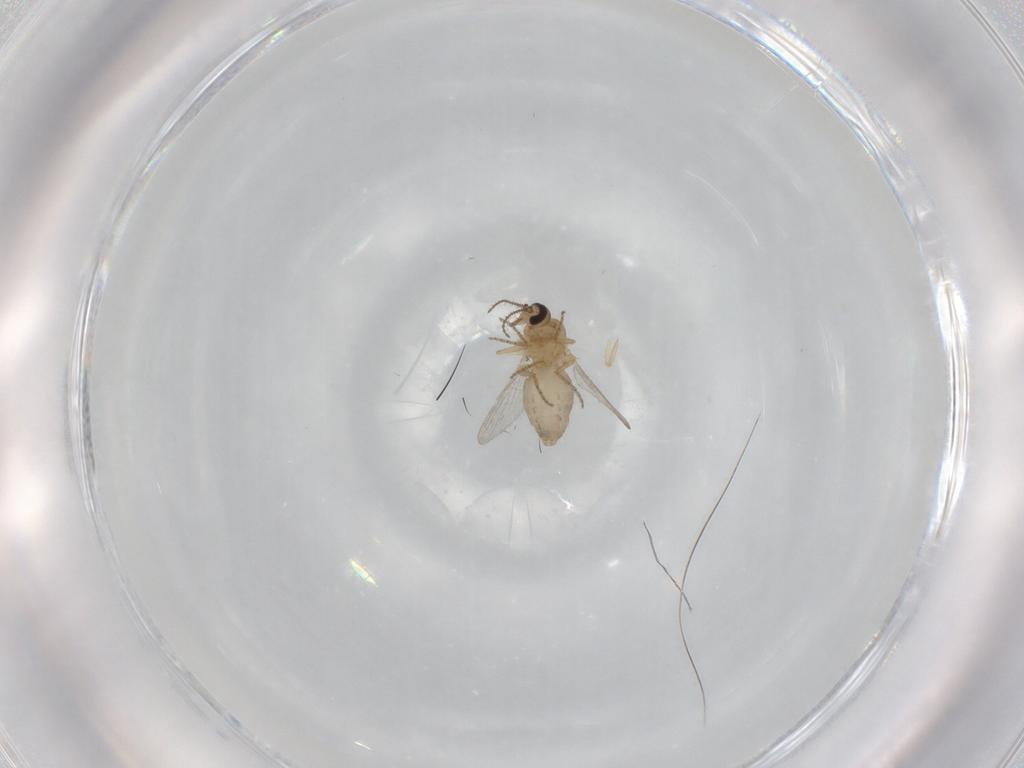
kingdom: Animalia
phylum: Arthropoda
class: Insecta
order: Diptera
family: Ceratopogonidae
